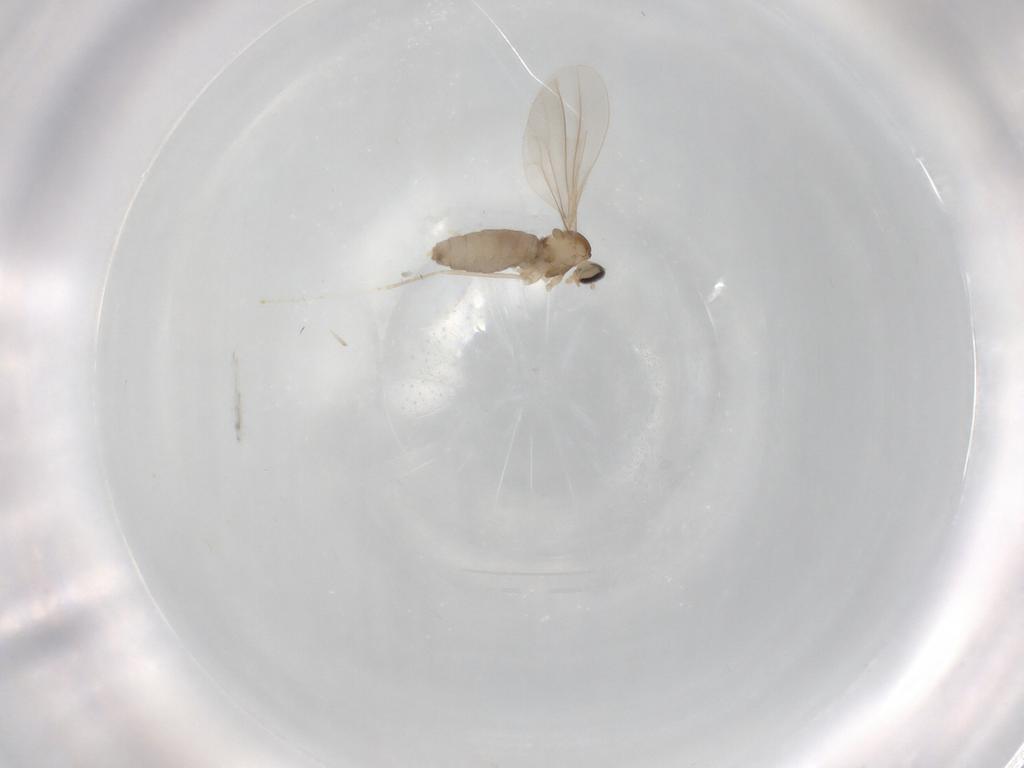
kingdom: Animalia
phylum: Arthropoda
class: Insecta
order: Diptera
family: Cecidomyiidae
